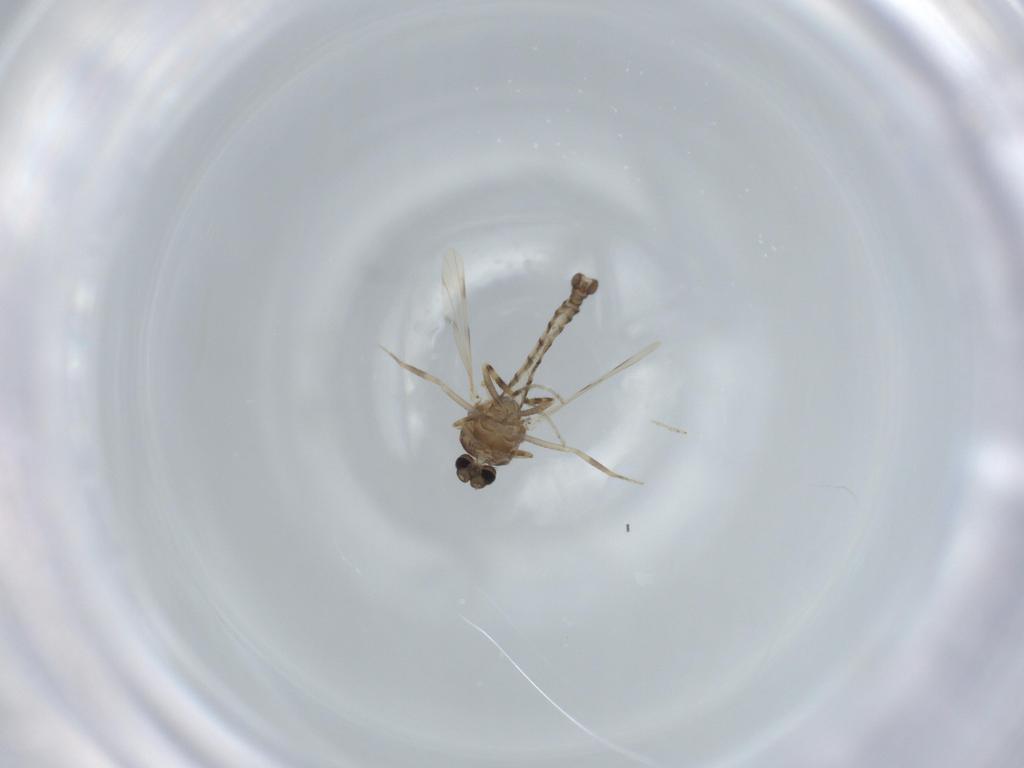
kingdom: Animalia
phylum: Arthropoda
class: Insecta
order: Diptera
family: Ceratopogonidae
